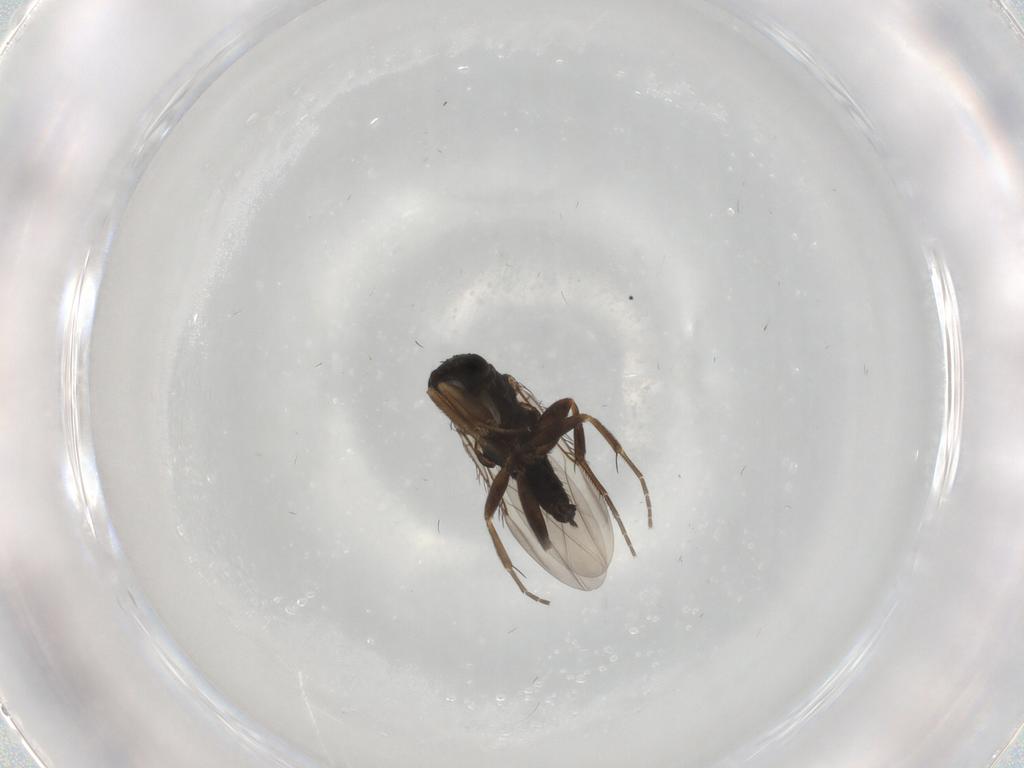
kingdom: Animalia
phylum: Arthropoda
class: Insecta
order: Diptera
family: Phoridae
